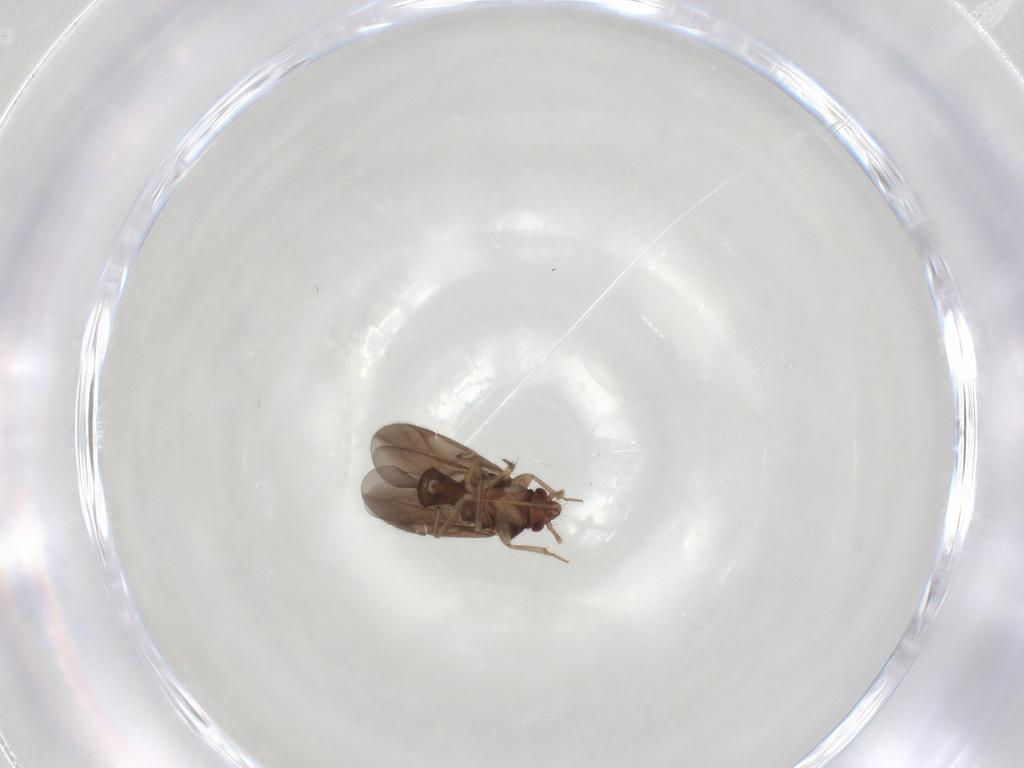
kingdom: Animalia
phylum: Arthropoda
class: Insecta
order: Hemiptera
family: Ceratocombidae
